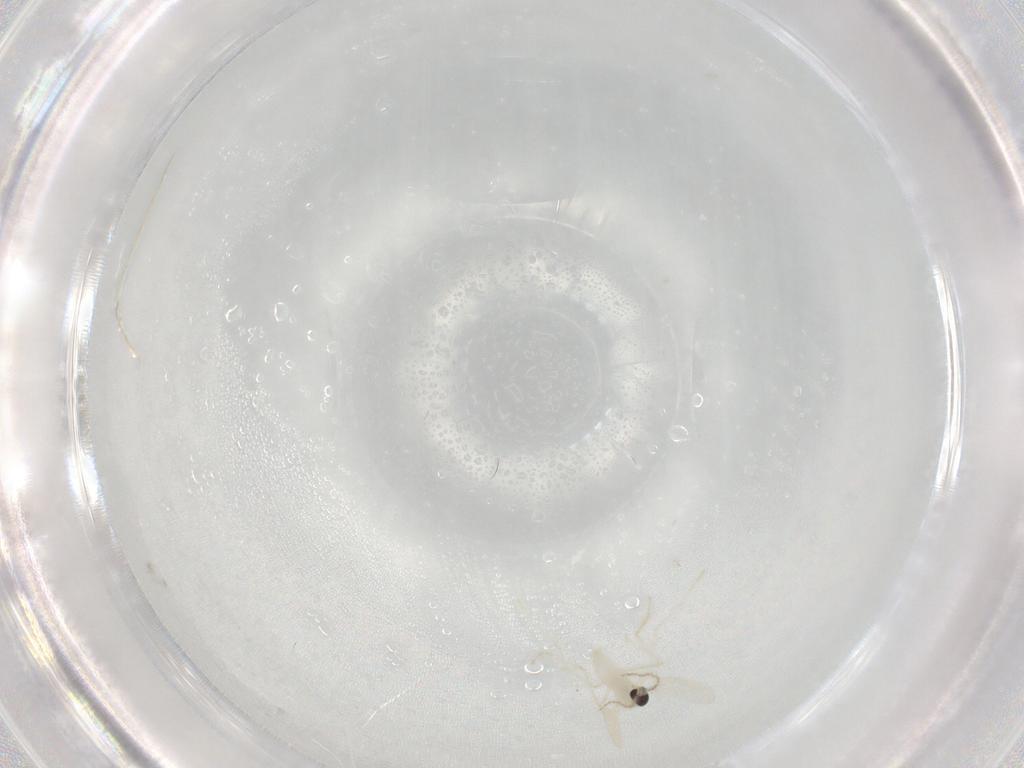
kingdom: Animalia
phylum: Arthropoda
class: Insecta
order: Diptera
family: Cecidomyiidae
